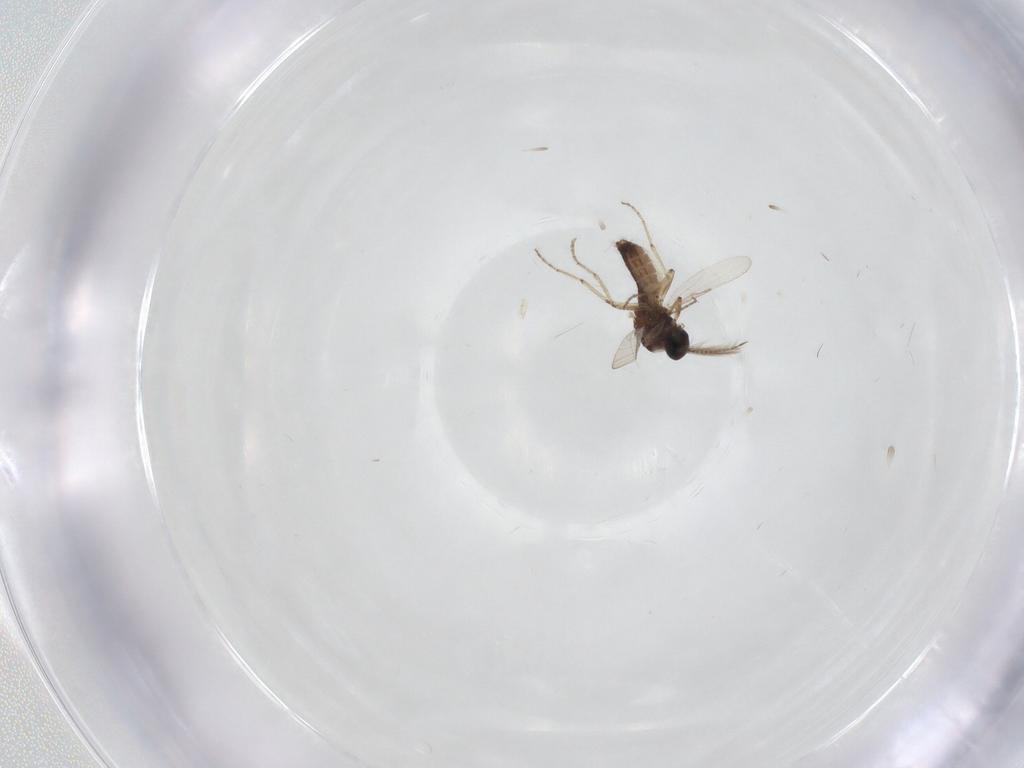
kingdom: Animalia
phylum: Arthropoda
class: Insecta
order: Diptera
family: Dolichopodidae
